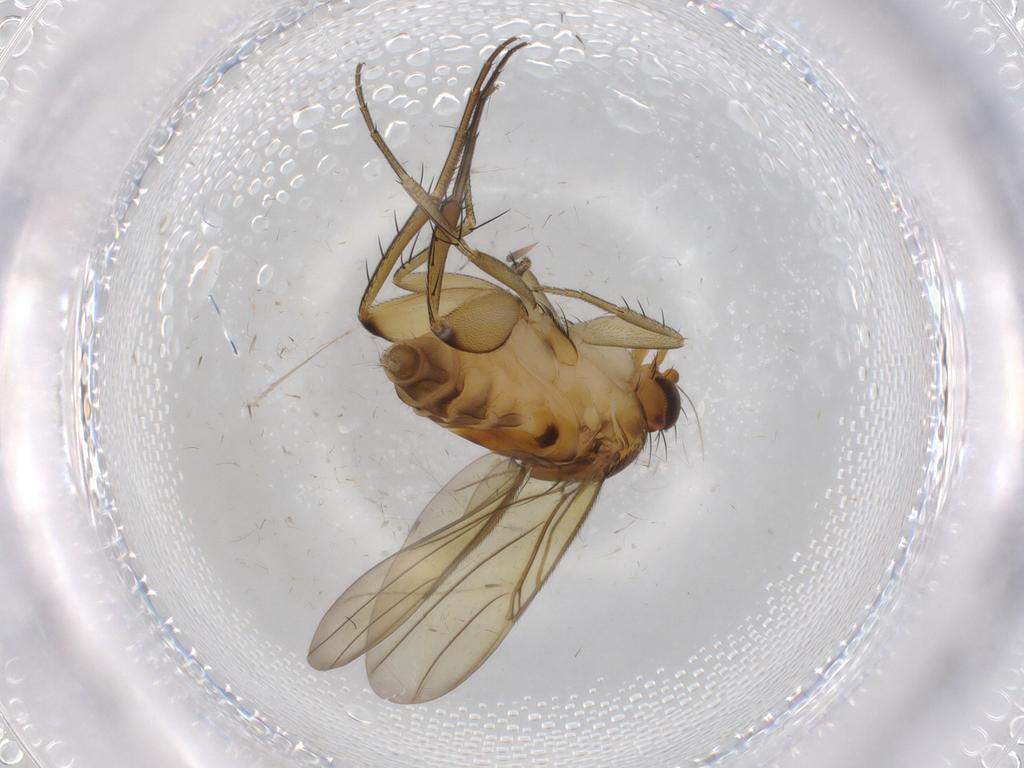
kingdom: Animalia
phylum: Arthropoda
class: Insecta
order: Diptera
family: Phoridae
